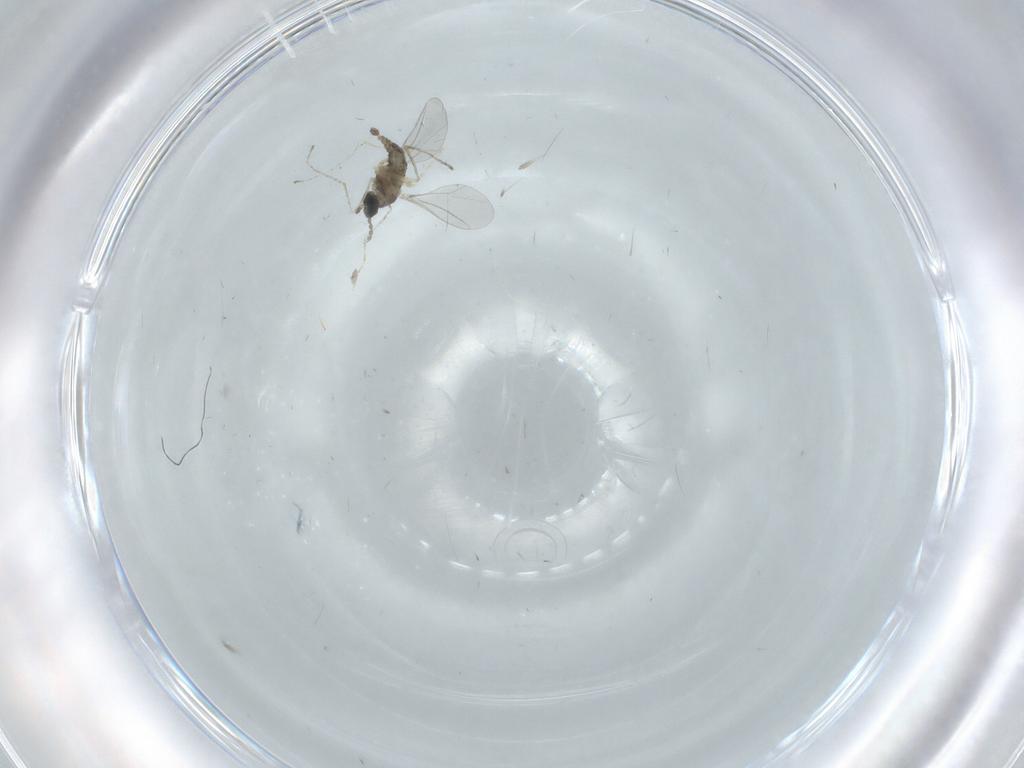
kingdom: Animalia
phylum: Arthropoda
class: Insecta
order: Diptera
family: Cecidomyiidae
